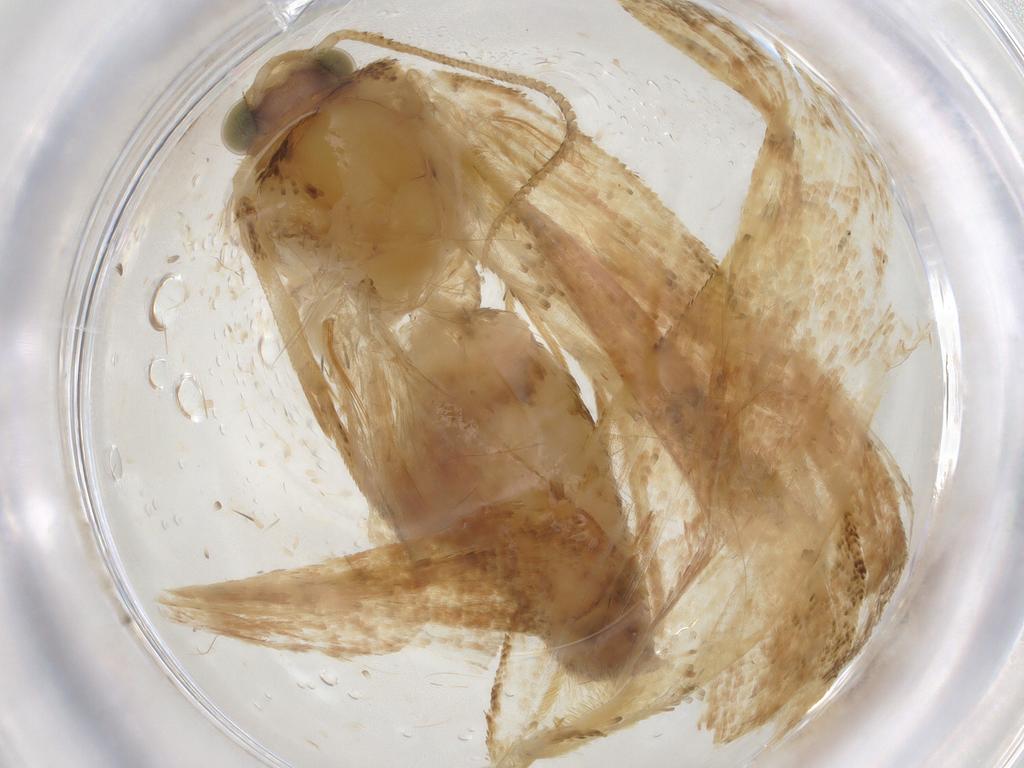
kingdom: Animalia
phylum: Arthropoda
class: Insecta
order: Lepidoptera
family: Tortricidae
